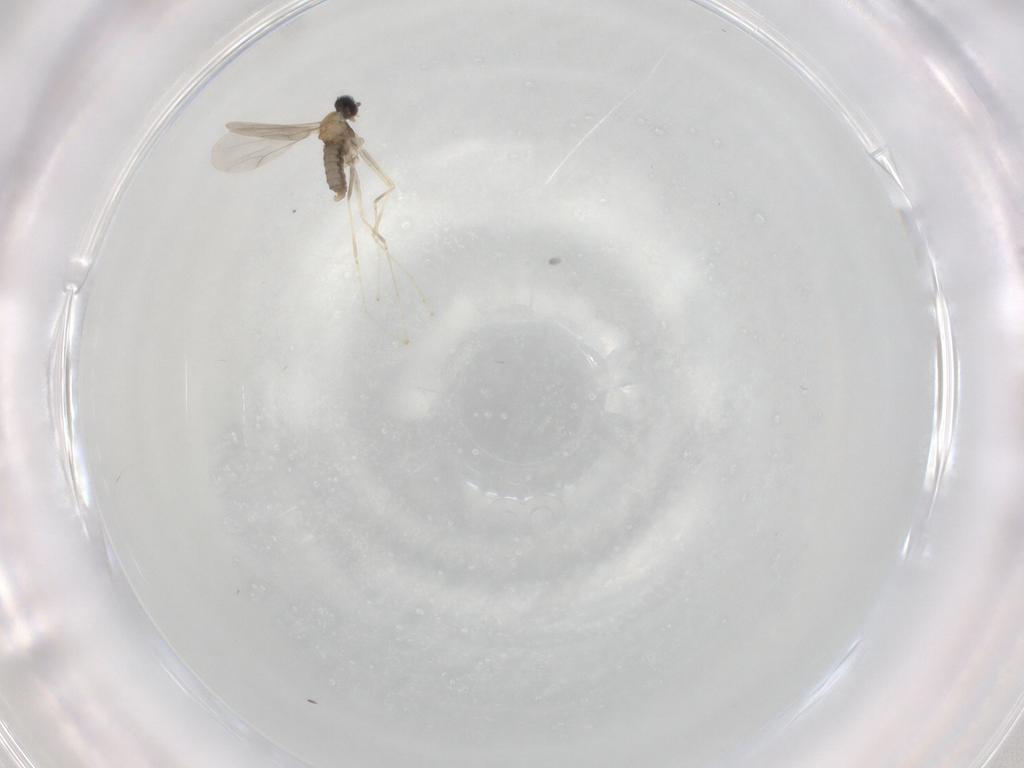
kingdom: Animalia
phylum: Arthropoda
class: Insecta
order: Diptera
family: Cecidomyiidae
